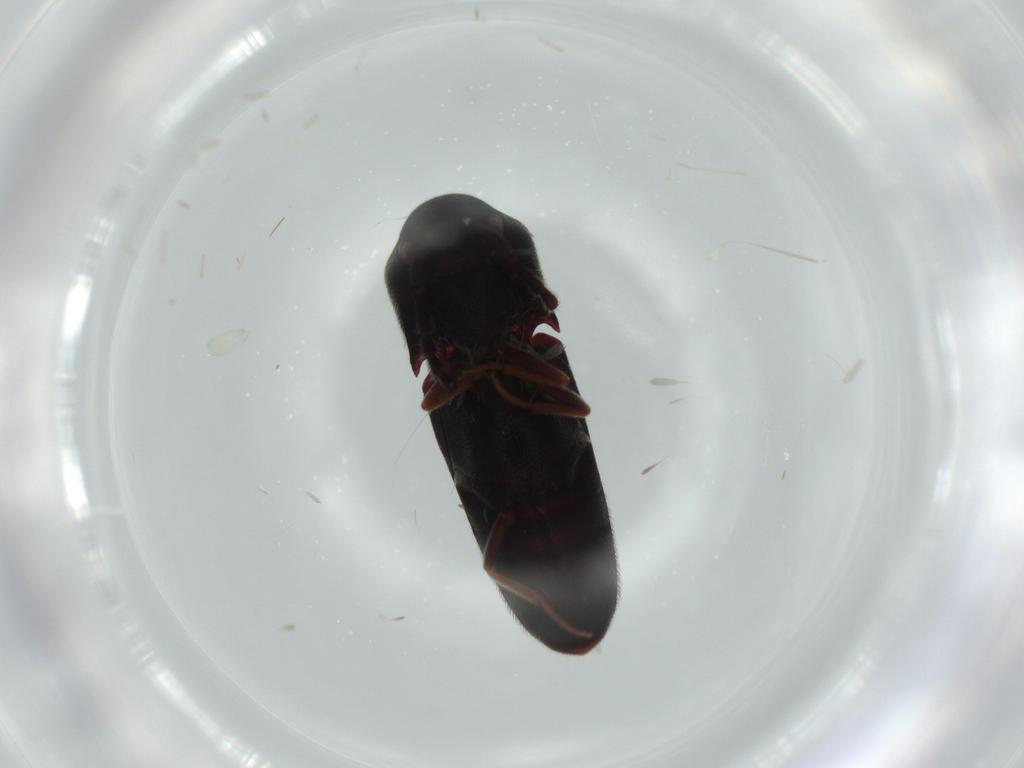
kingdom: Animalia
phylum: Arthropoda
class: Insecta
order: Coleoptera
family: Eucnemidae
